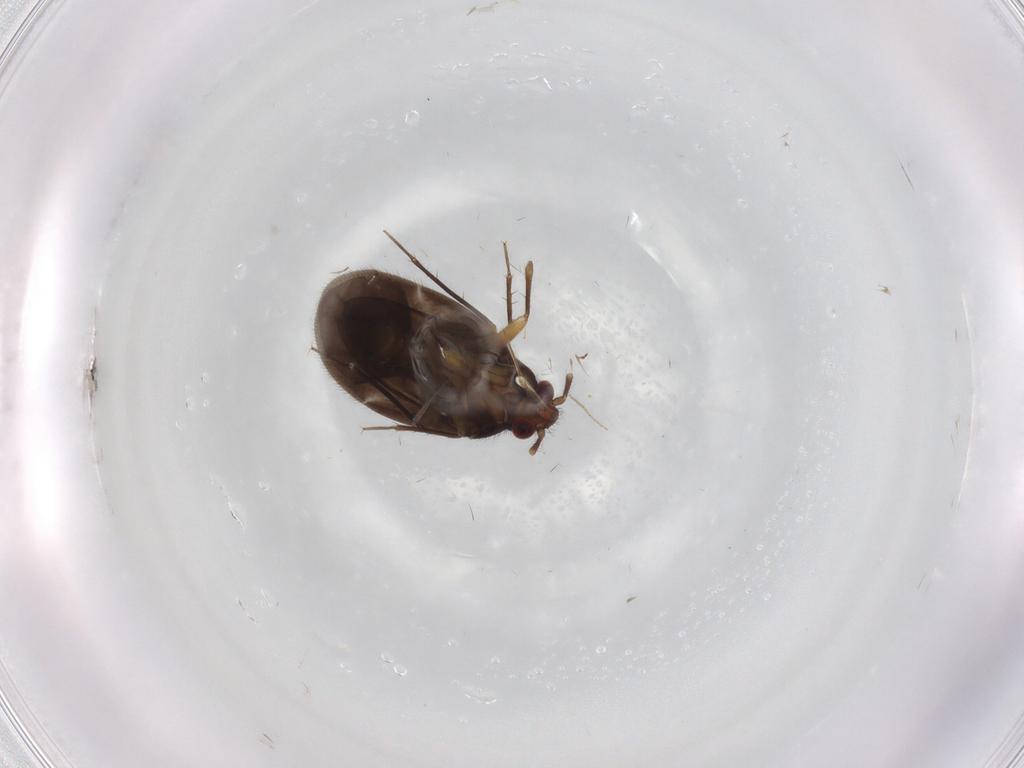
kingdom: Animalia
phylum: Arthropoda
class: Insecta
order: Hemiptera
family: Ceratocombidae
